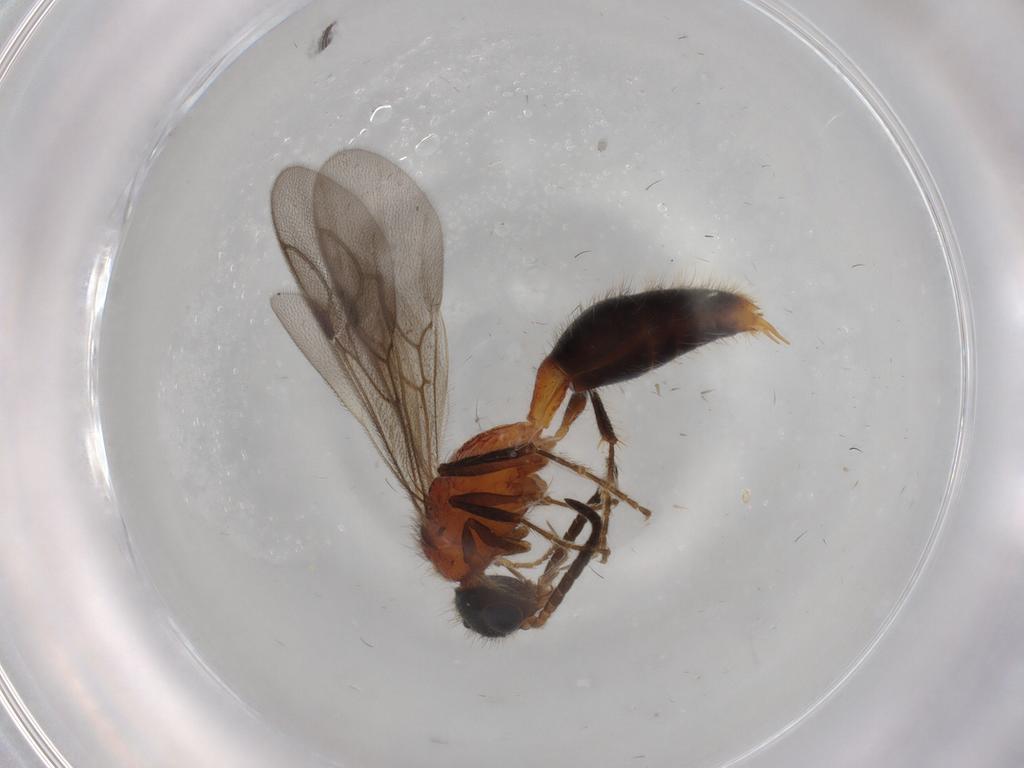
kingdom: Animalia
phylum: Arthropoda
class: Insecta
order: Hymenoptera
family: Mutillidae
